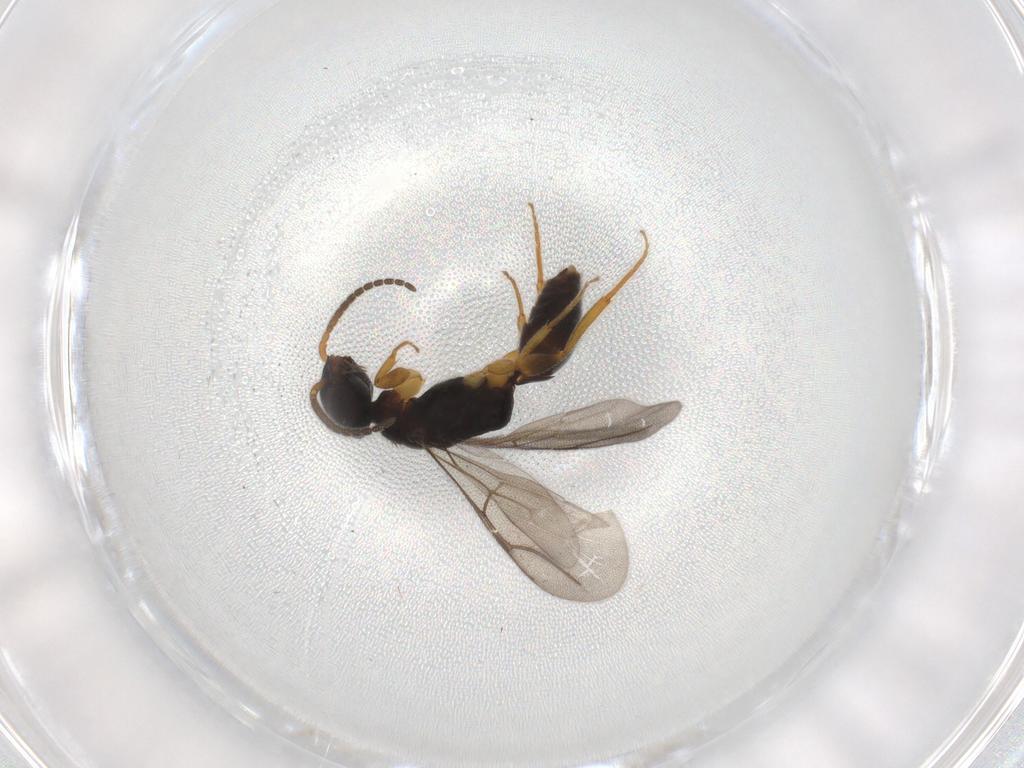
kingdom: Animalia
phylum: Arthropoda
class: Insecta
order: Hymenoptera
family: Bethylidae
